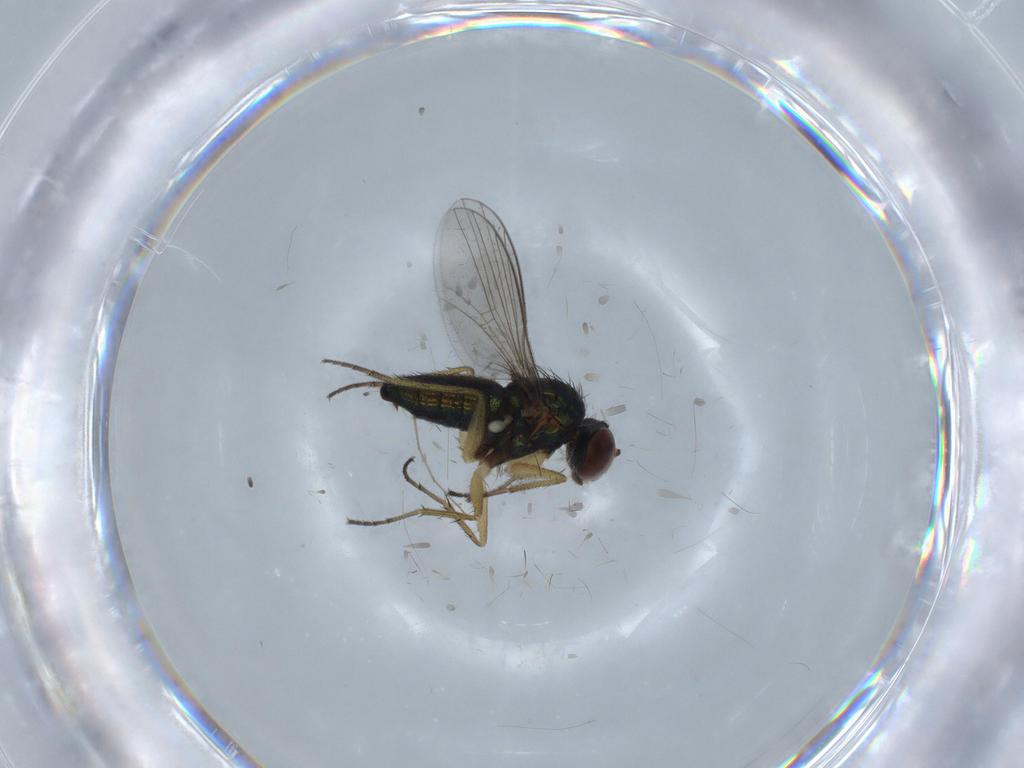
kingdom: Animalia
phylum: Arthropoda
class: Insecta
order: Diptera
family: Dolichopodidae
